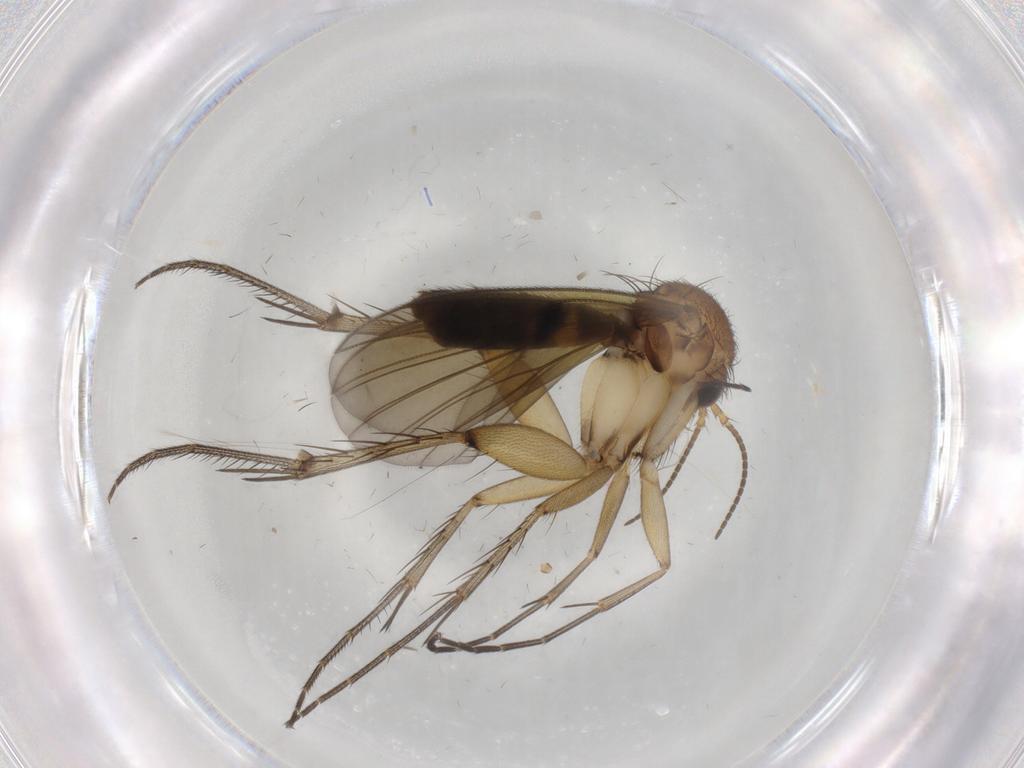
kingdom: Animalia
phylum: Arthropoda
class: Insecta
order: Diptera
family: Mycetophilidae
